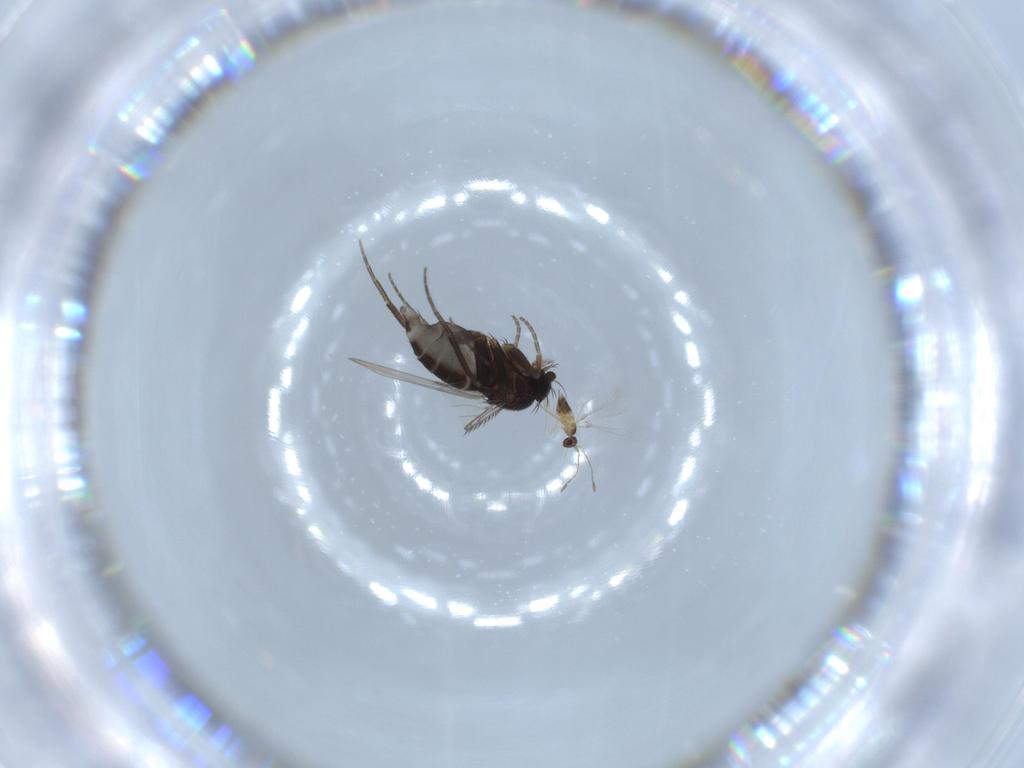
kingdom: Animalia
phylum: Arthropoda
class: Insecta
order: Diptera
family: Phoridae
